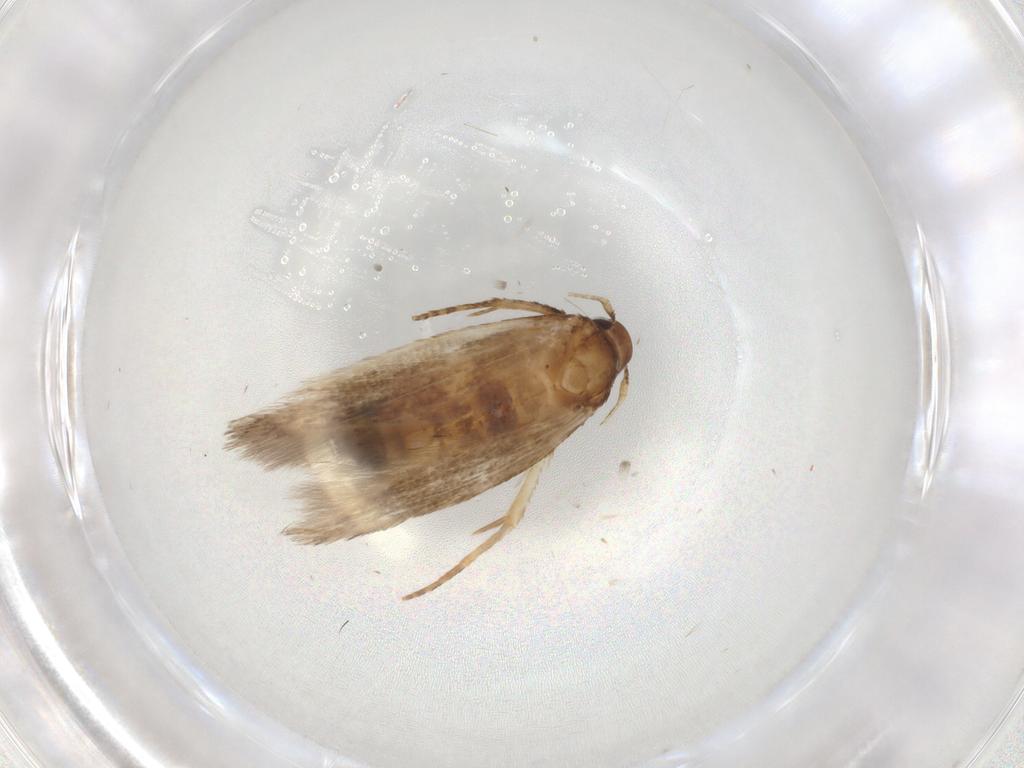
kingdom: Animalia
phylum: Arthropoda
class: Insecta
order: Lepidoptera
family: Cosmopterigidae
